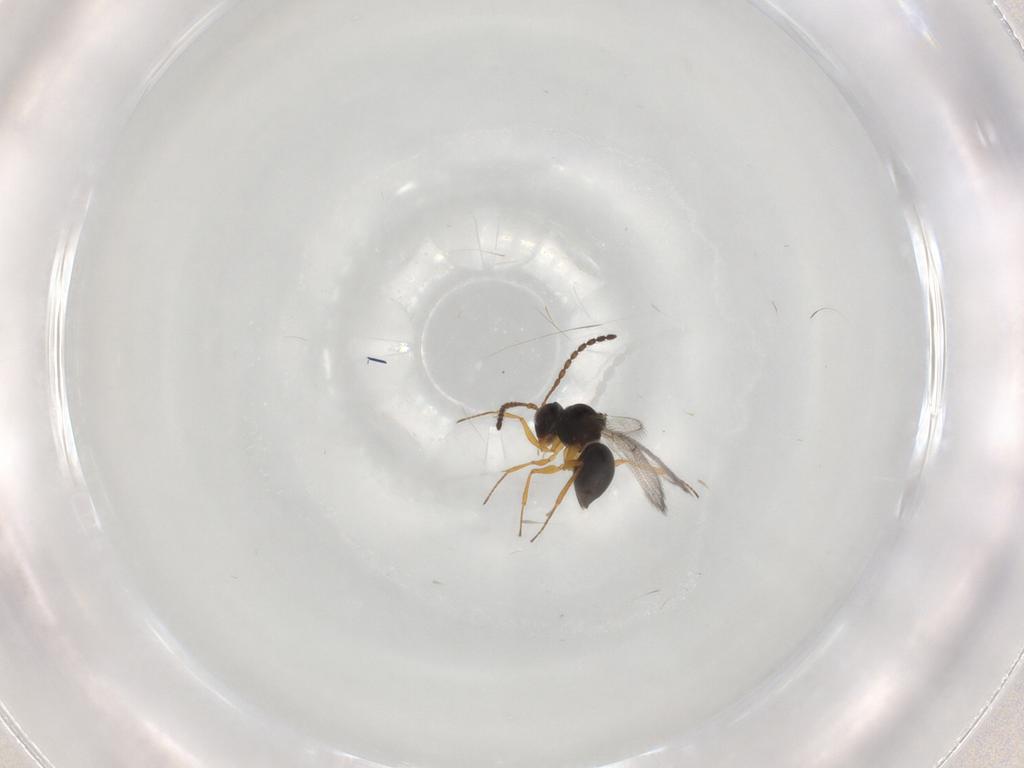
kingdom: Animalia
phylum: Arthropoda
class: Insecta
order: Hymenoptera
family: Figitidae
